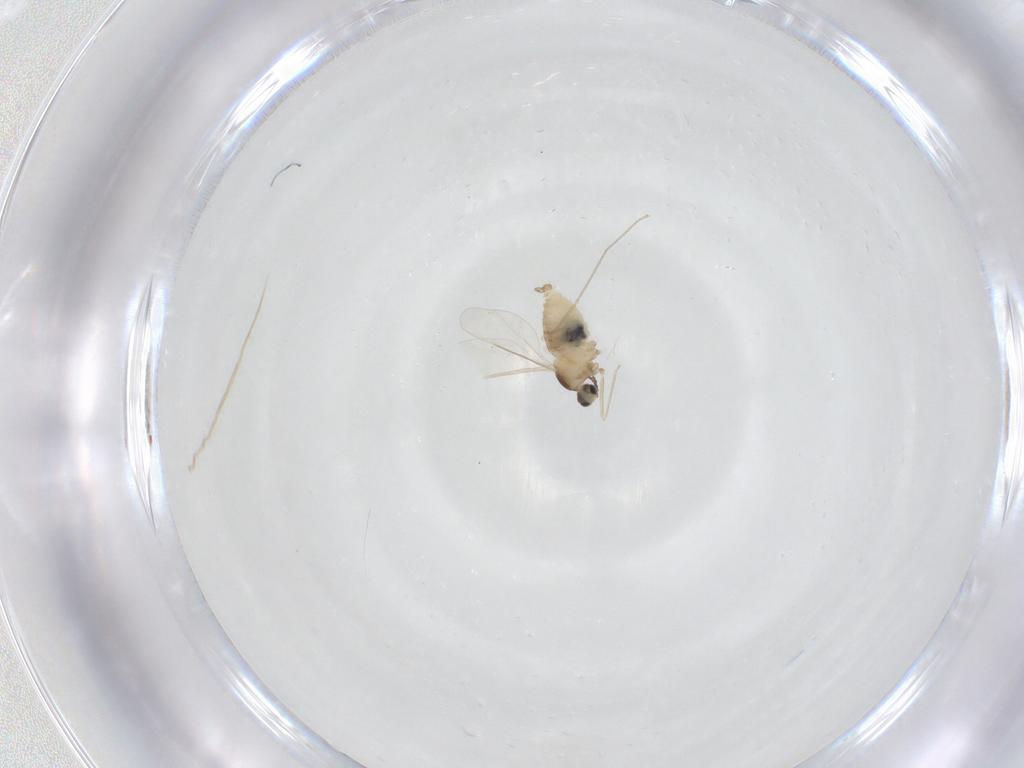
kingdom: Animalia
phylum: Arthropoda
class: Insecta
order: Diptera
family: Cecidomyiidae
